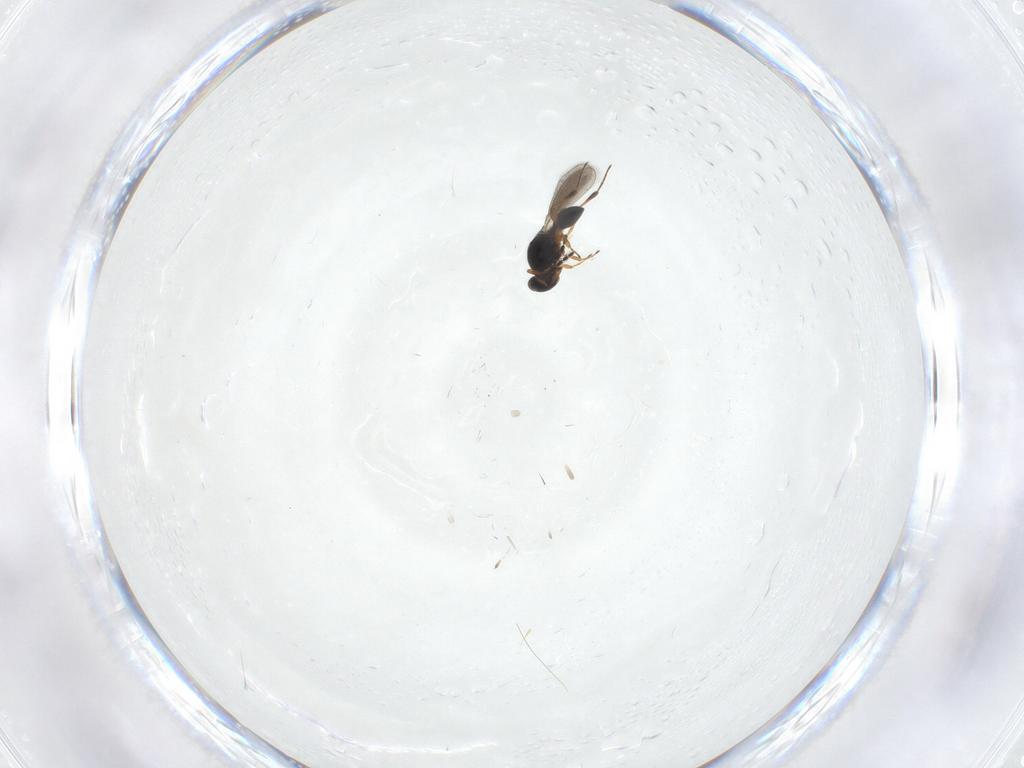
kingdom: Animalia
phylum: Arthropoda
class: Insecta
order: Hymenoptera
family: Platygastridae
